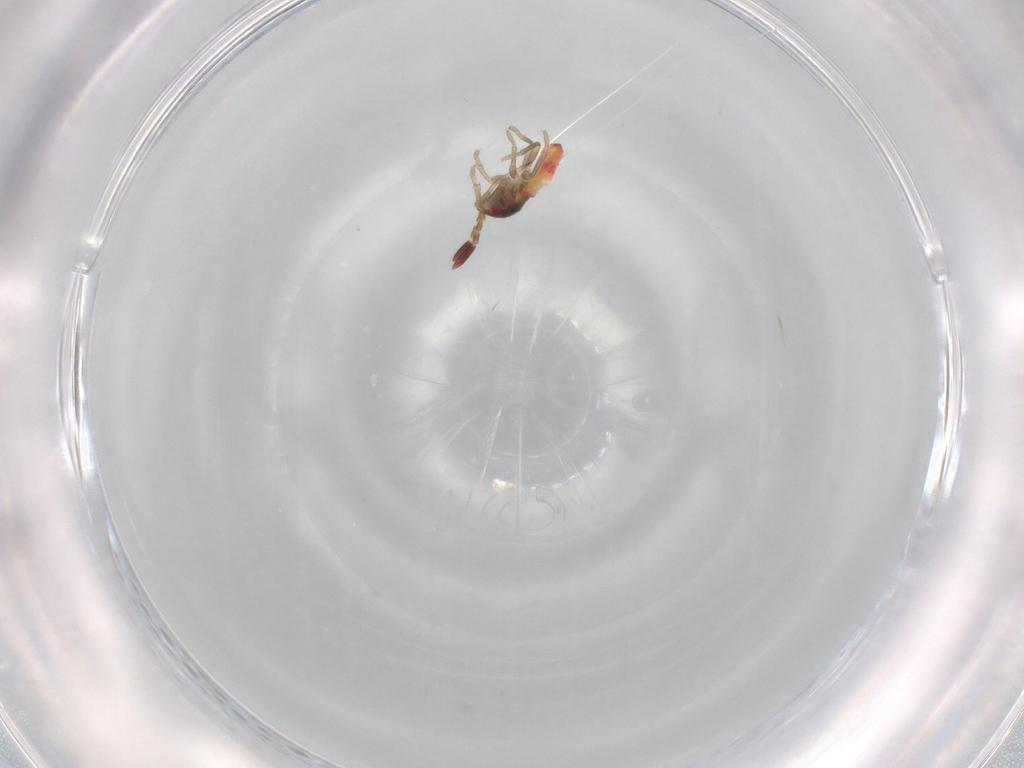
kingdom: Animalia
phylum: Arthropoda
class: Insecta
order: Hemiptera
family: Rhyparochromidae
